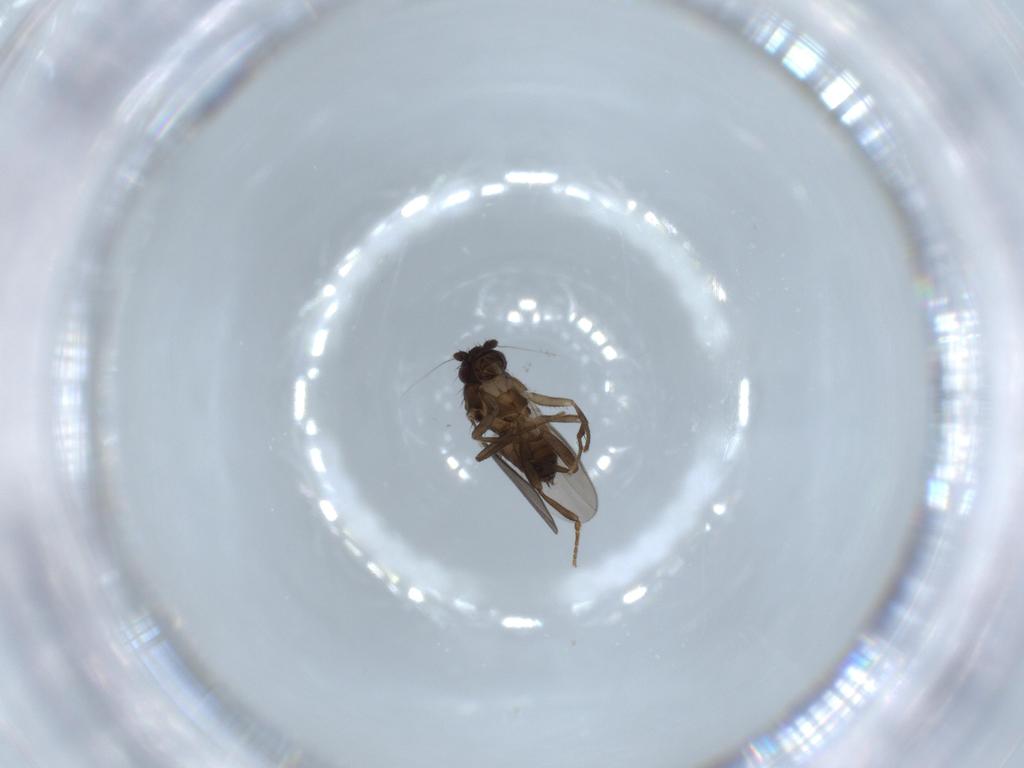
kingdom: Animalia
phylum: Arthropoda
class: Insecta
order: Diptera
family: Sphaeroceridae
